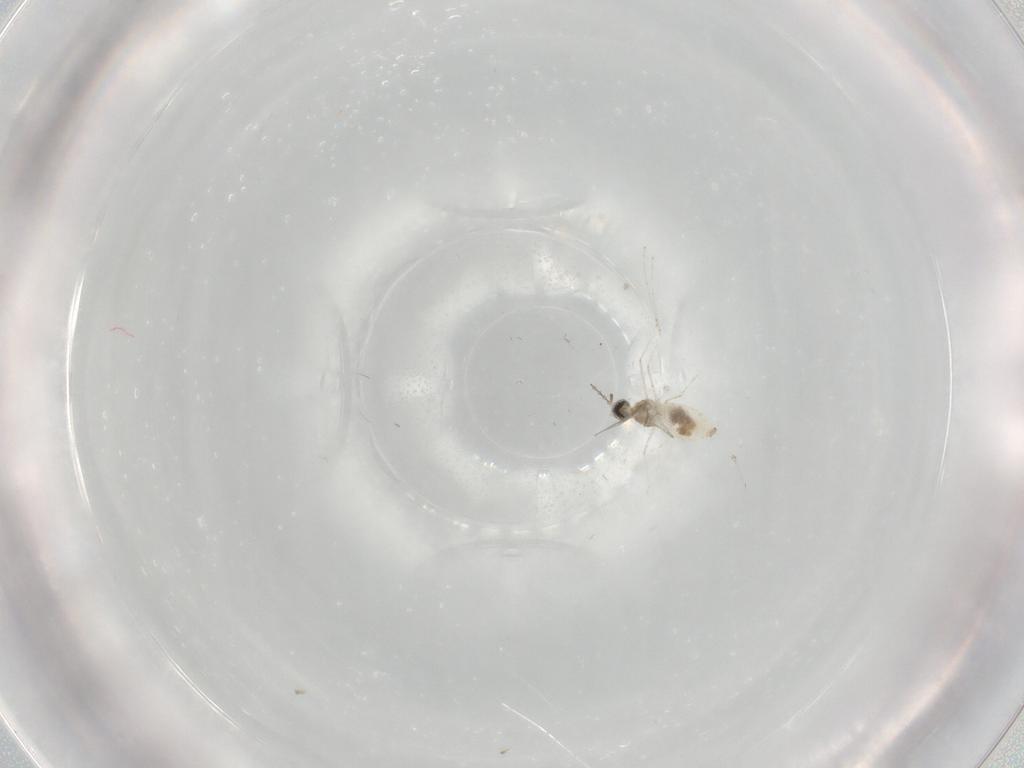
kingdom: Animalia
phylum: Arthropoda
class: Insecta
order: Diptera
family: Cecidomyiidae
